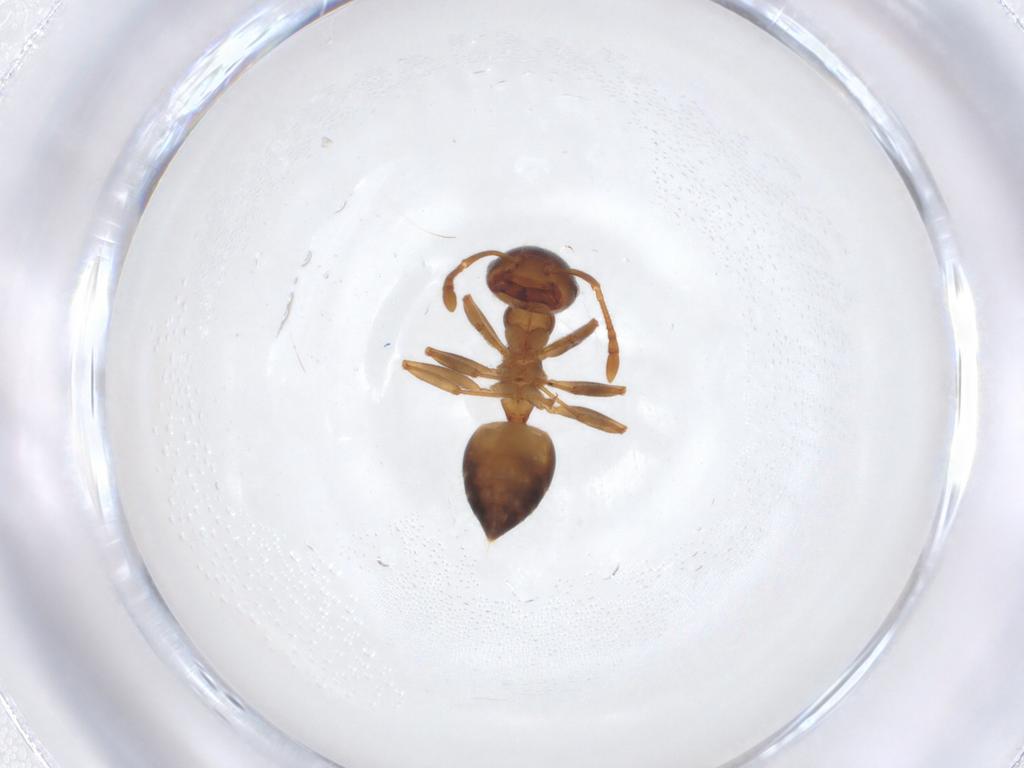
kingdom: Animalia
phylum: Arthropoda
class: Insecta
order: Hymenoptera
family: Formicidae
